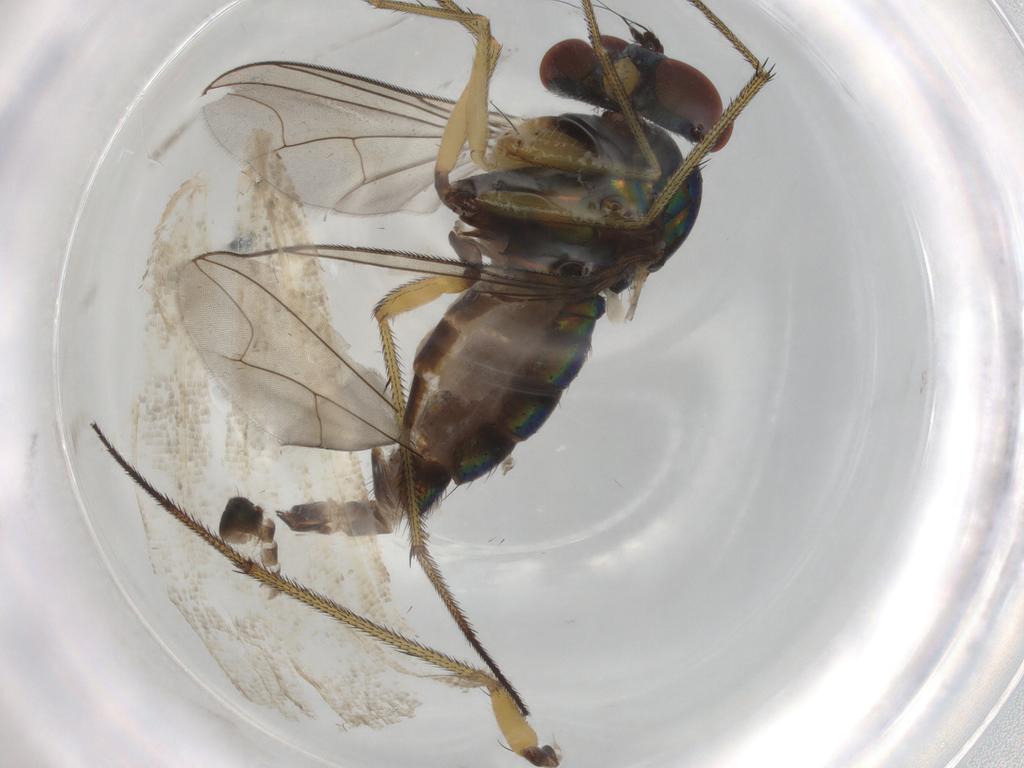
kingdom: Animalia
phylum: Arthropoda
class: Insecta
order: Diptera
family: Dolichopodidae
